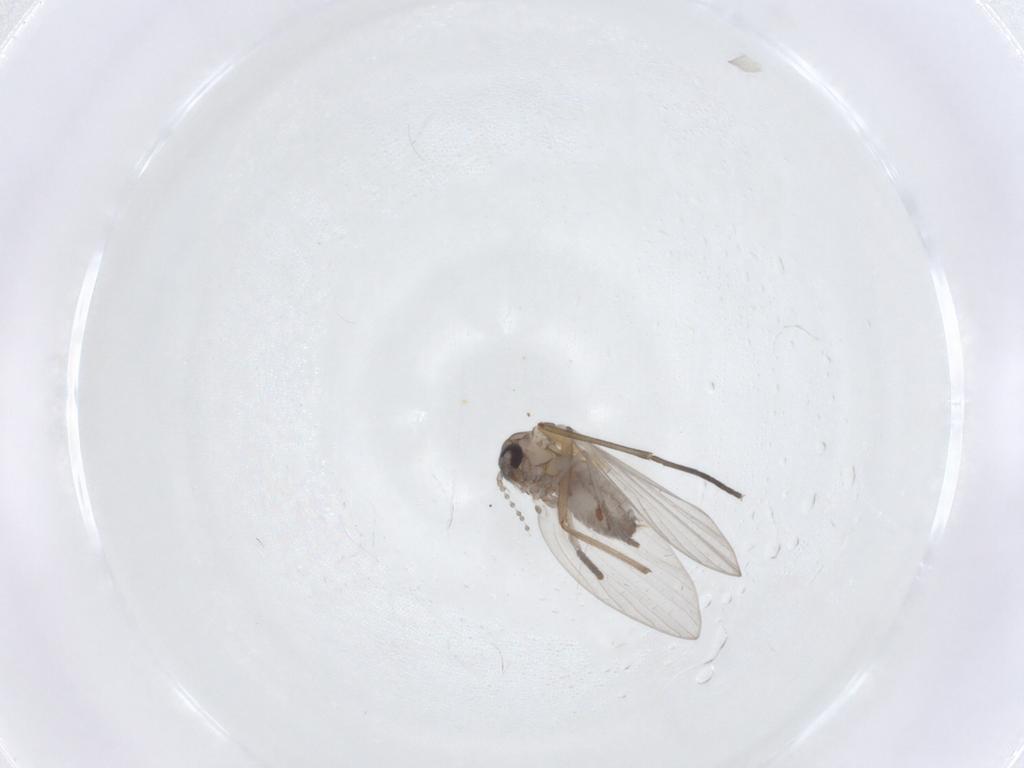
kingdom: Animalia
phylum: Arthropoda
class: Insecta
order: Diptera
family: Psychodidae
